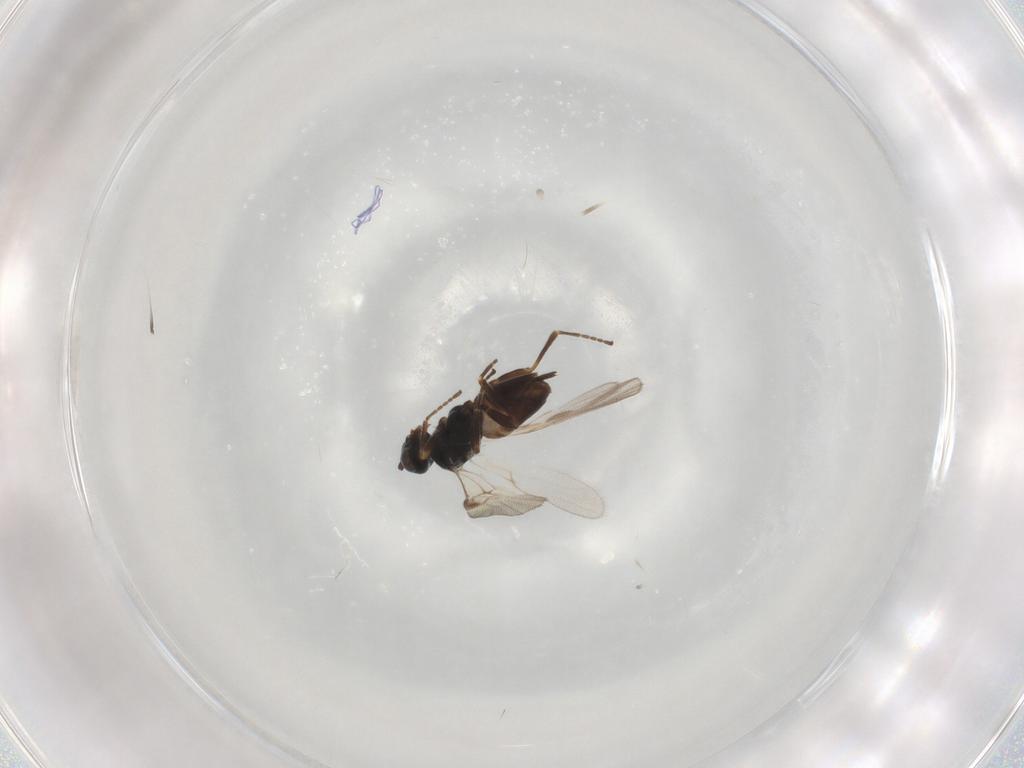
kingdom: Animalia
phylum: Arthropoda
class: Insecta
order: Hymenoptera
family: Braconidae
